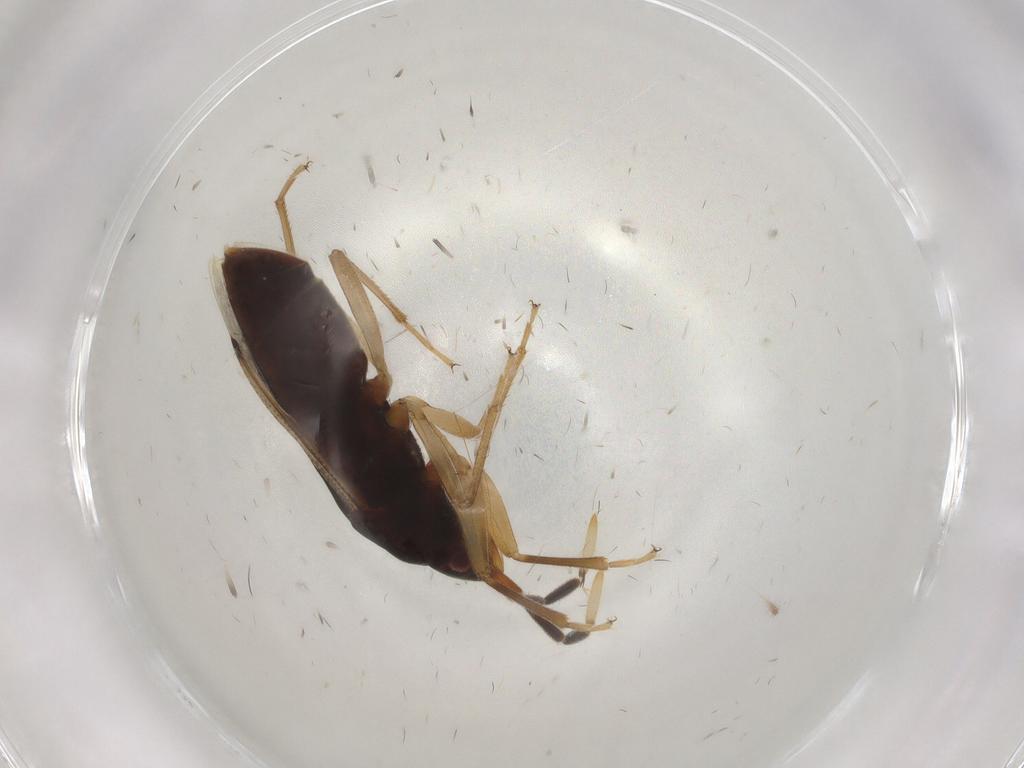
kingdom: Animalia
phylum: Arthropoda
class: Insecta
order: Hemiptera
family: Rhyparochromidae
